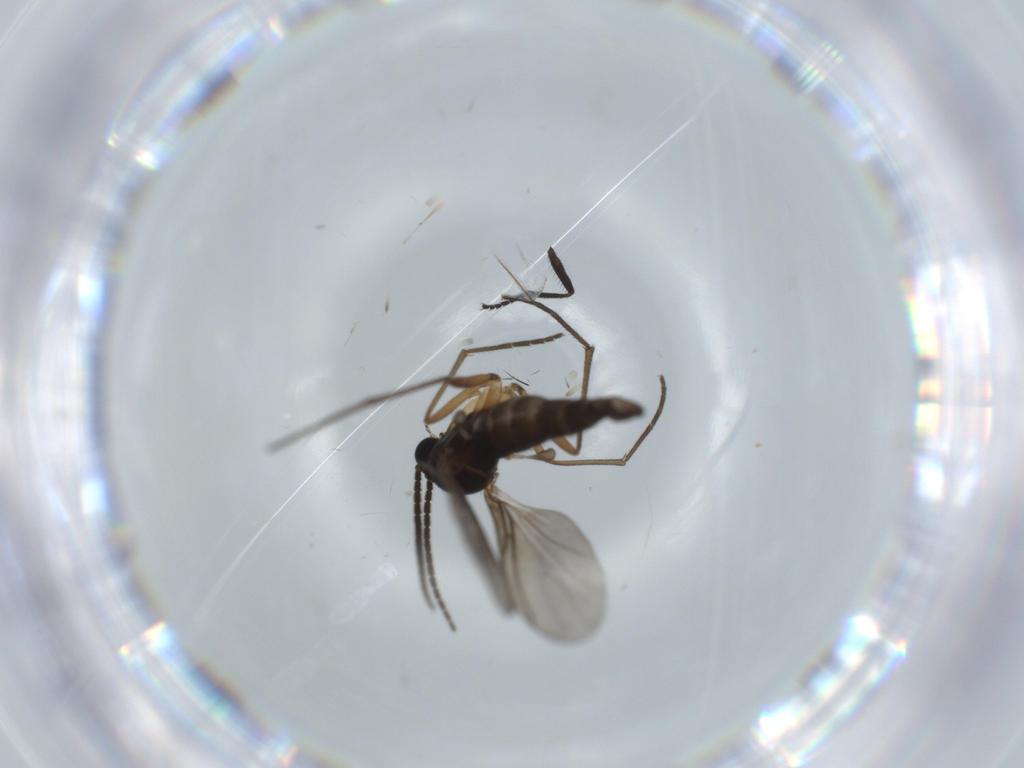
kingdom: Animalia
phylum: Arthropoda
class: Insecta
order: Diptera
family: Sciaridae
